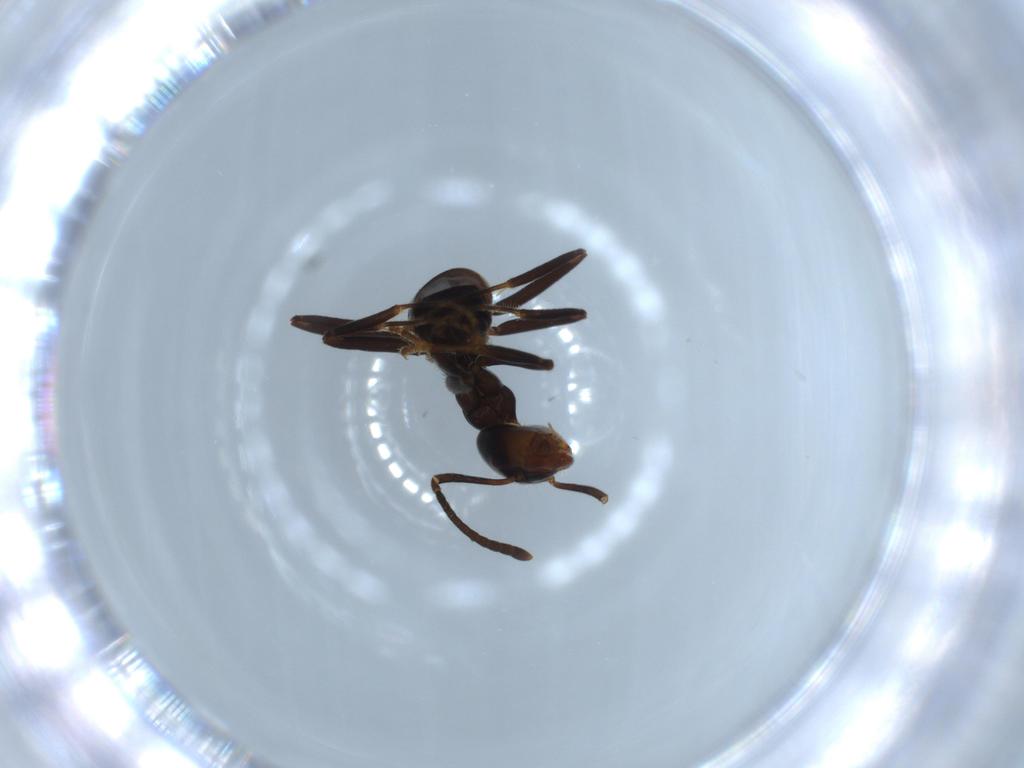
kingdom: Animalia
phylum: Arthropoda
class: Insecta
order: Hymenoptera
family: Formicidae
